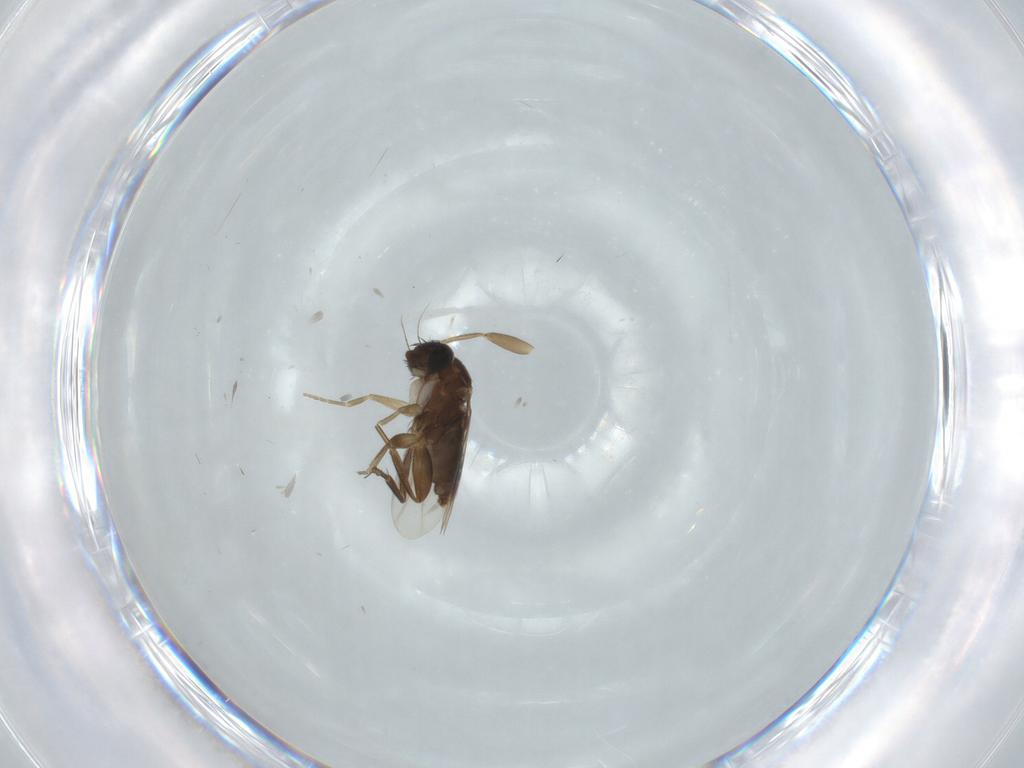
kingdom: Animalia
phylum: Arthropoda
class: Insecta
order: Diptera
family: Phoridae
